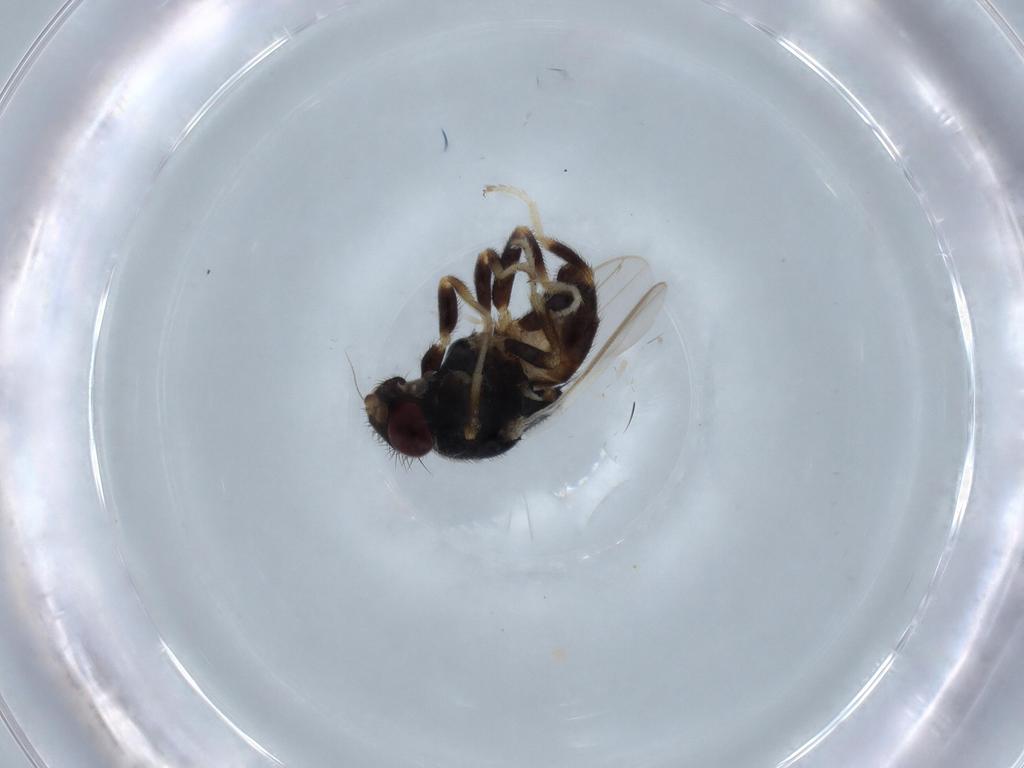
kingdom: Animalia
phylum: Arthropoda
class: Insecta
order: Diptera
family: Chloropidae
